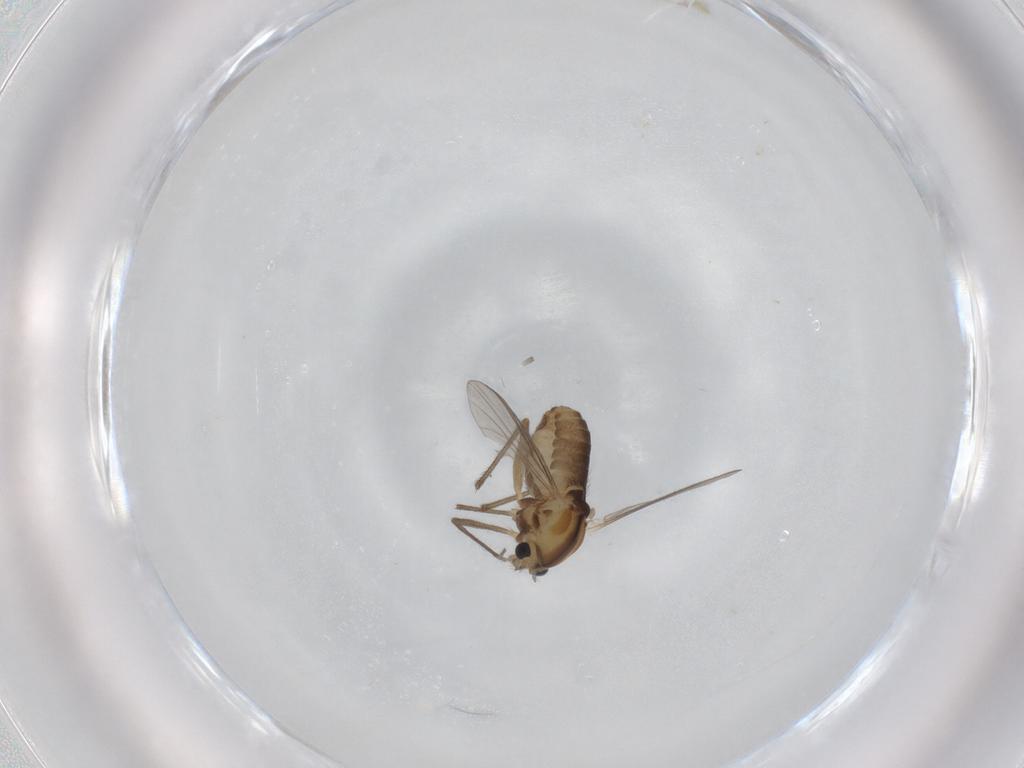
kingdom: Animalia
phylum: Arthropoda
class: Insecta
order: Diptera
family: Chironomidae
